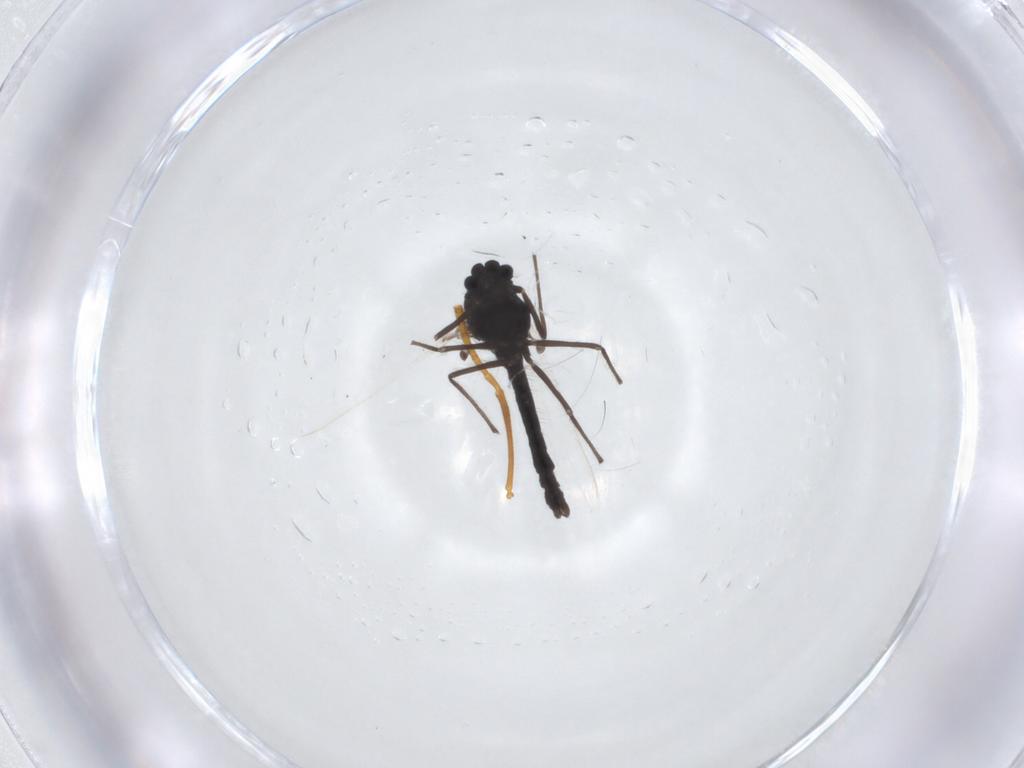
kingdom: Animalia
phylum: Arthropoda
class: Insecta
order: Diptera
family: Chironomidae
